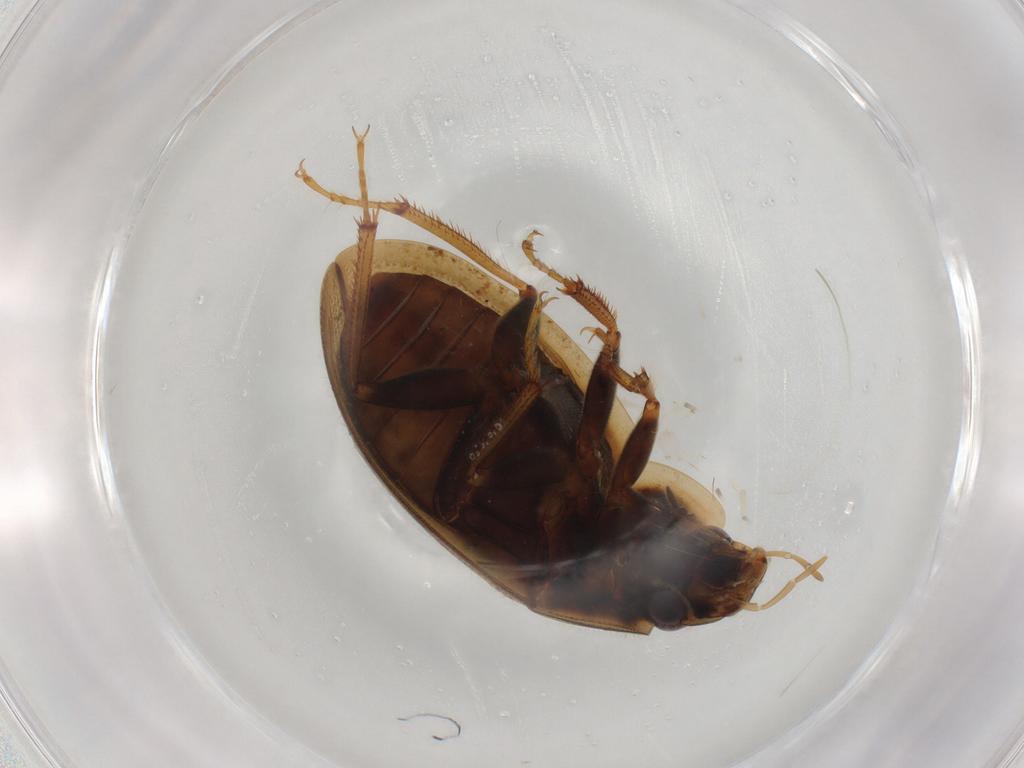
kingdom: Animalia
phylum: Arthropoda
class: Insecta
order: Coleoptera
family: Hydrophilidae
